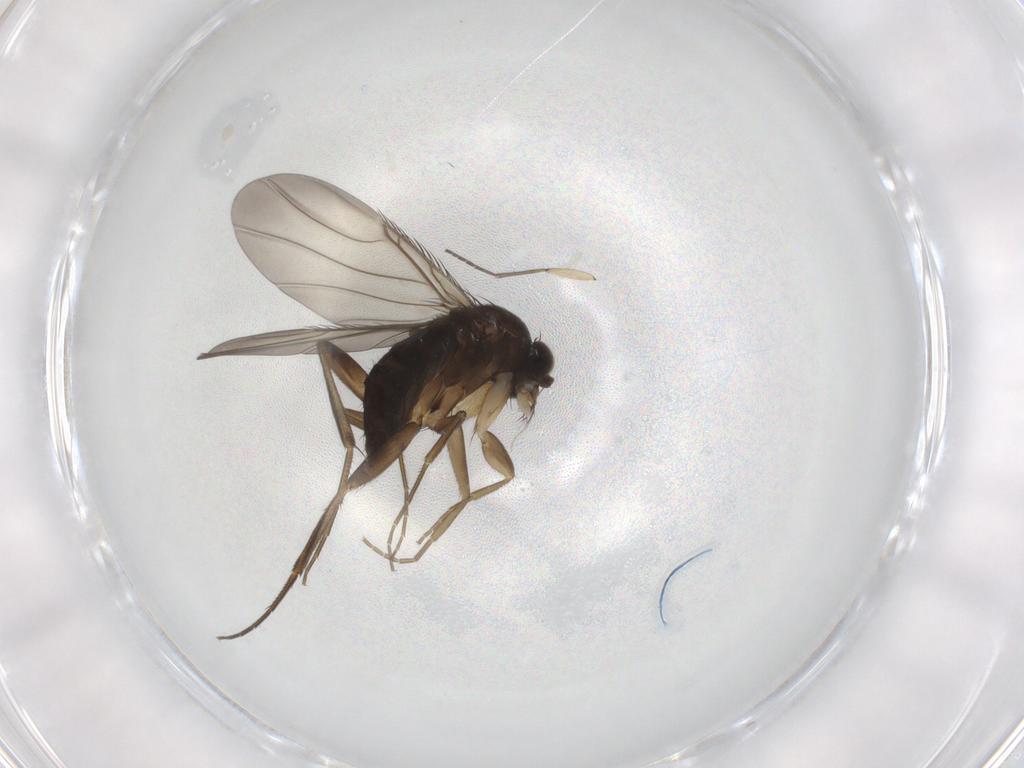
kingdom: Animalia
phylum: Arthropoda
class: Insecta
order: Diptera
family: Phoridae
